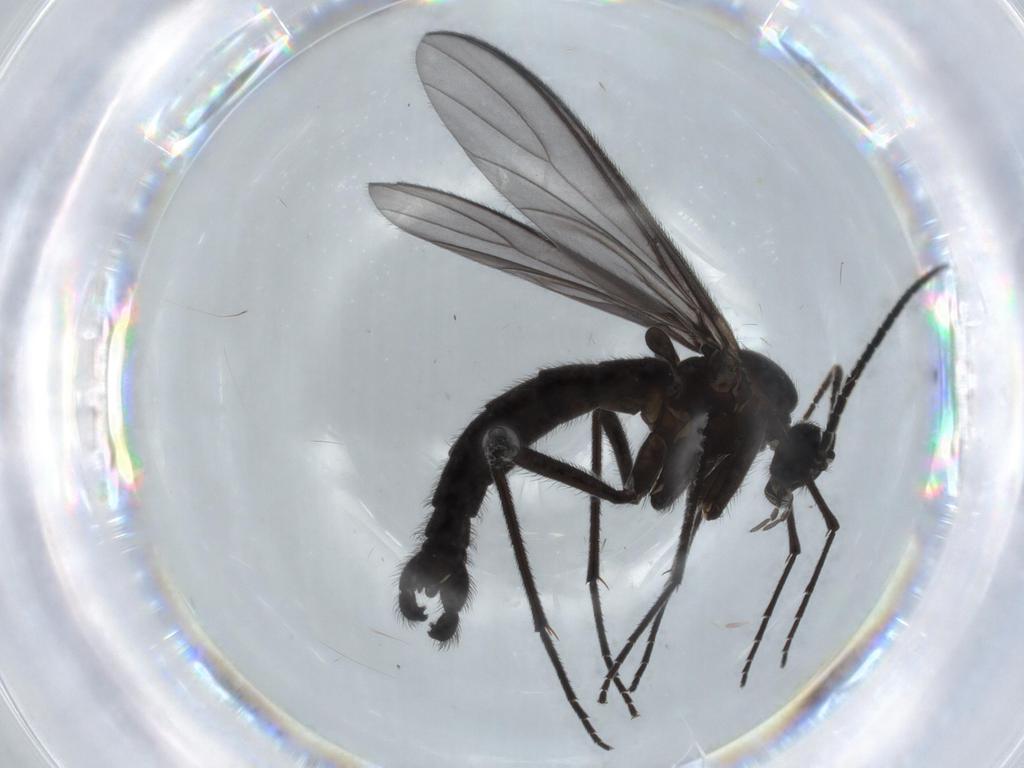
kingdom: Animalia
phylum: Arthropoda
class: Insecta
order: Diptera
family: Sciaridae
